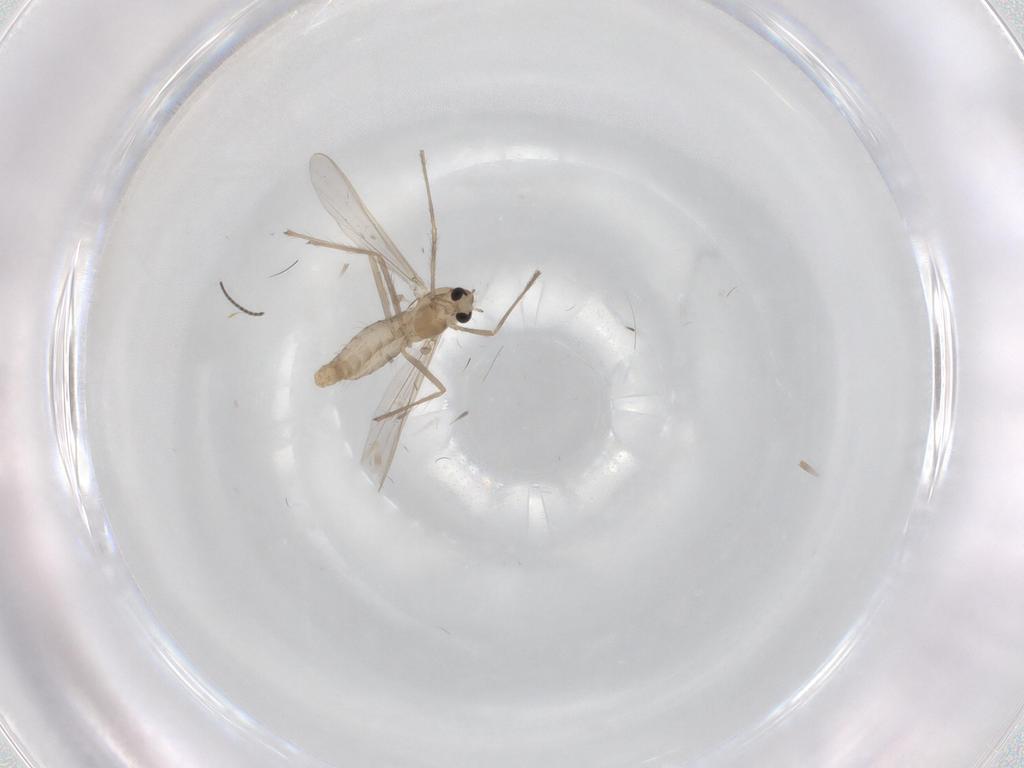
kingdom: Animalia
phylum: Arthropoda
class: Insecta
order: Diptera
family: Chironomidae
